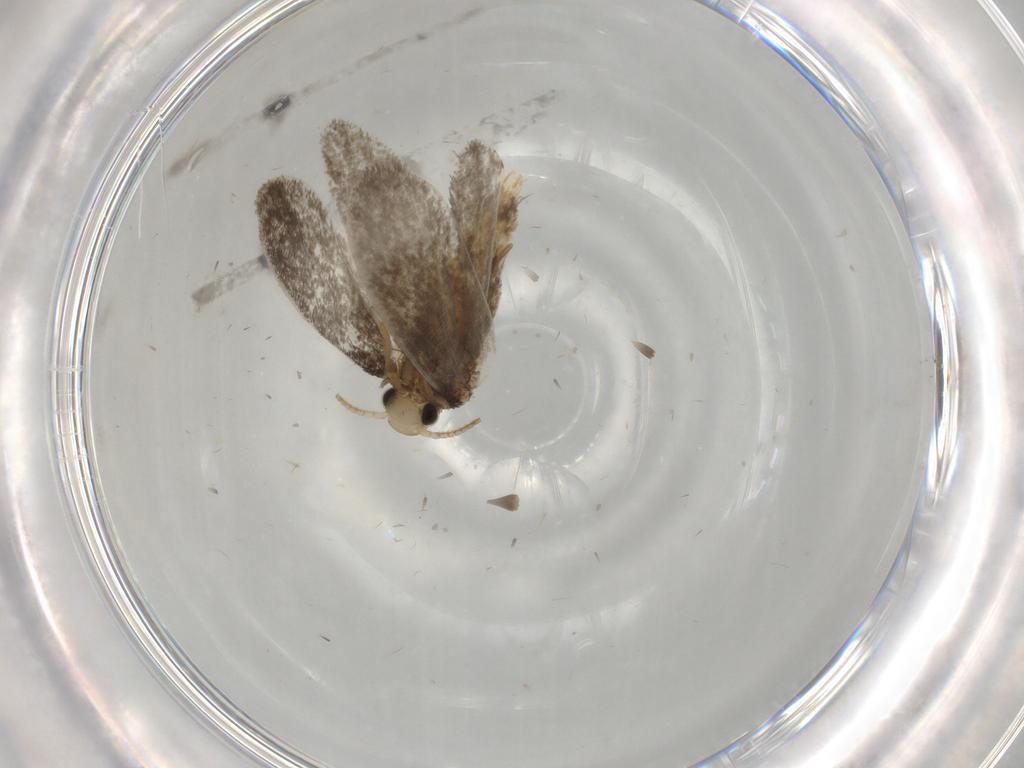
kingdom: Animalia
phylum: Arthropoda
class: Insecta
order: Lepidoptera
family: Psychidae
